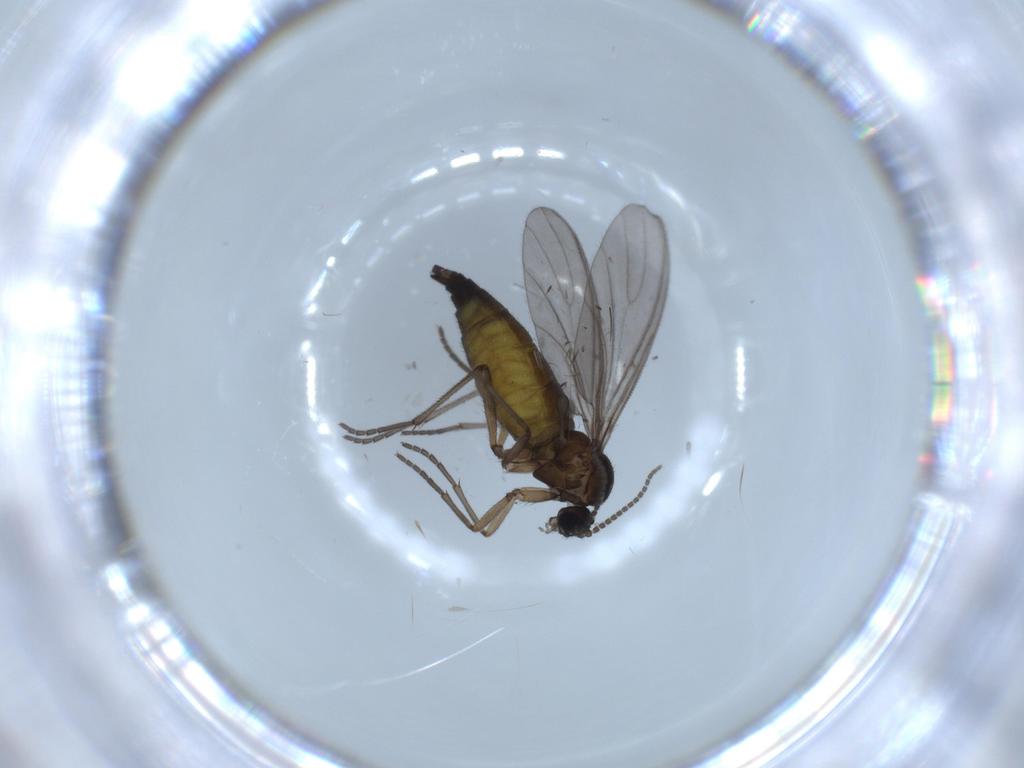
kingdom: Animalia
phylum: Arthropoda
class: Insecta
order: Diptera
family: Sciaridae
